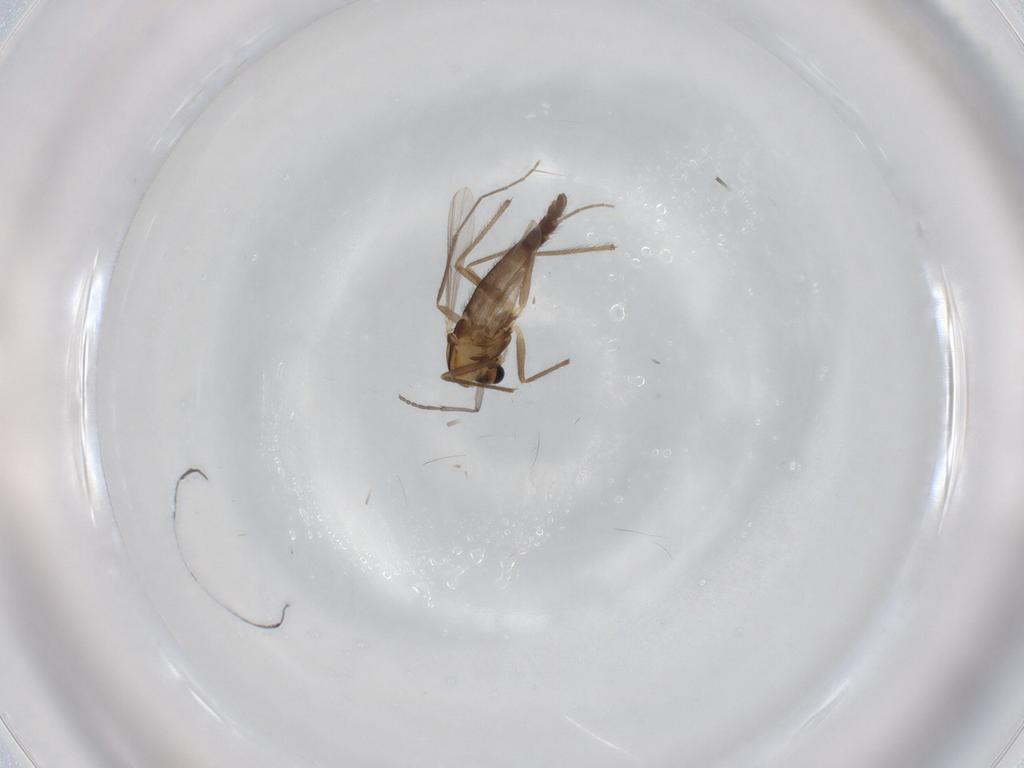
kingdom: Animalia
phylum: Arthropoda
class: Insecta
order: Diptera
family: Chironomidae
